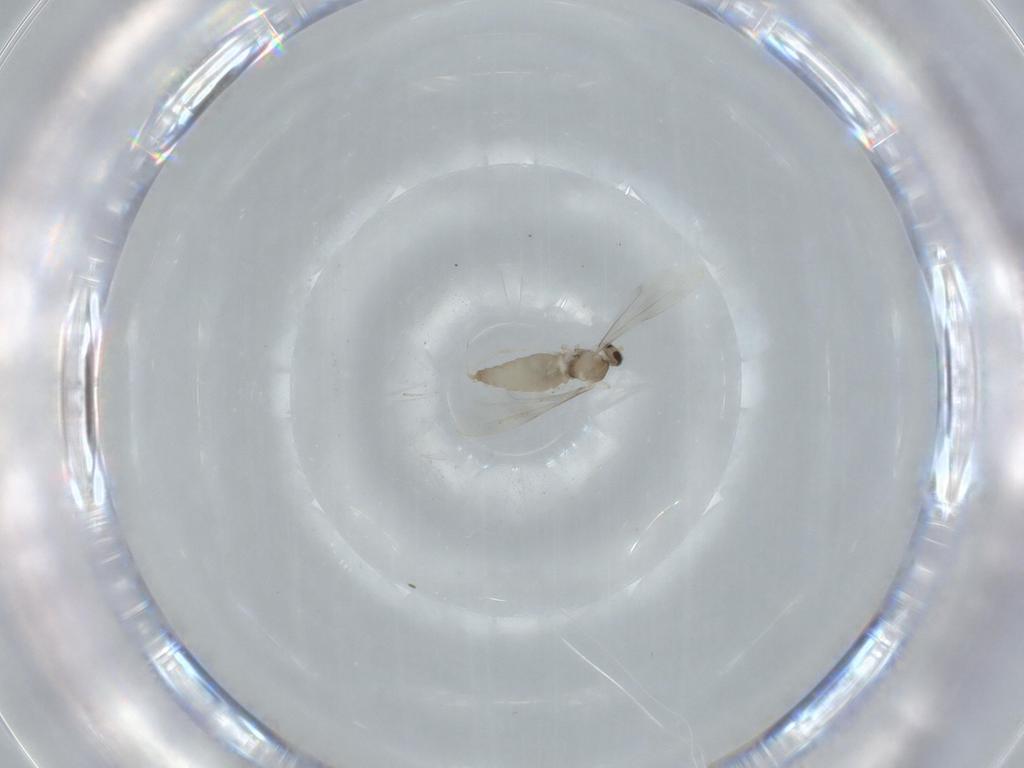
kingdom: Animalia
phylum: Arthropoda
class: Insecta
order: Diptera
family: Cecidomyiidae
